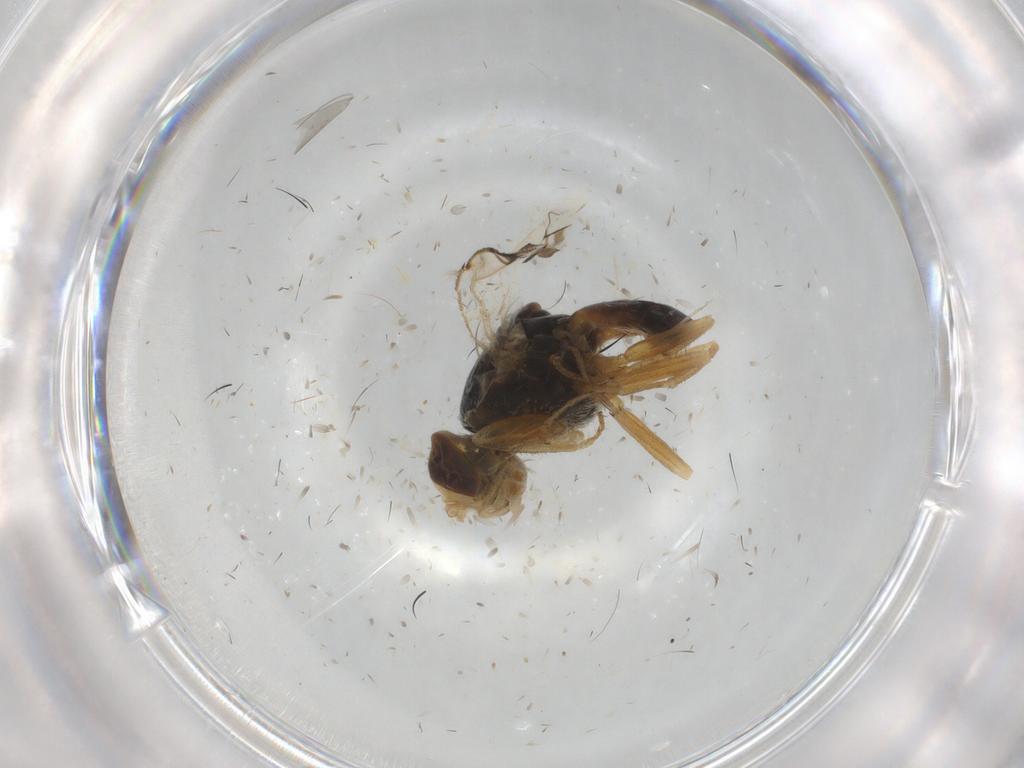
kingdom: Animalia
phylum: Arthropoda
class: Insecta
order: Diptera
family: Tephritidae
